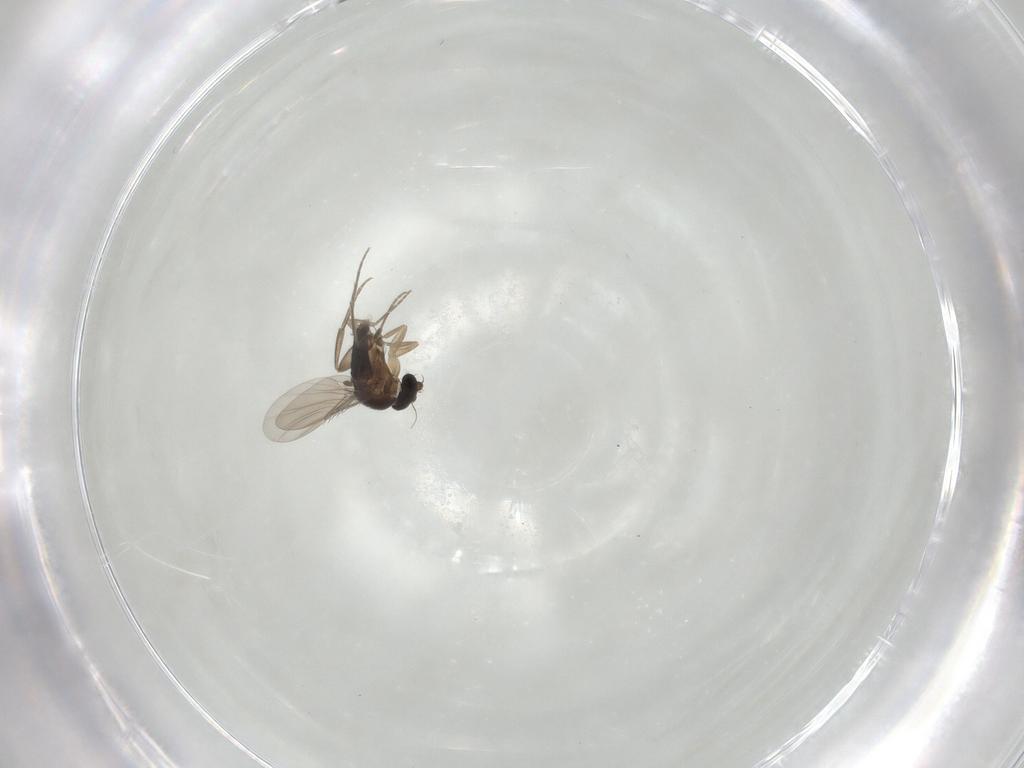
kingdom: Animalia
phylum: Arthropoda
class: Insecta
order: Diptera
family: Phoridae
